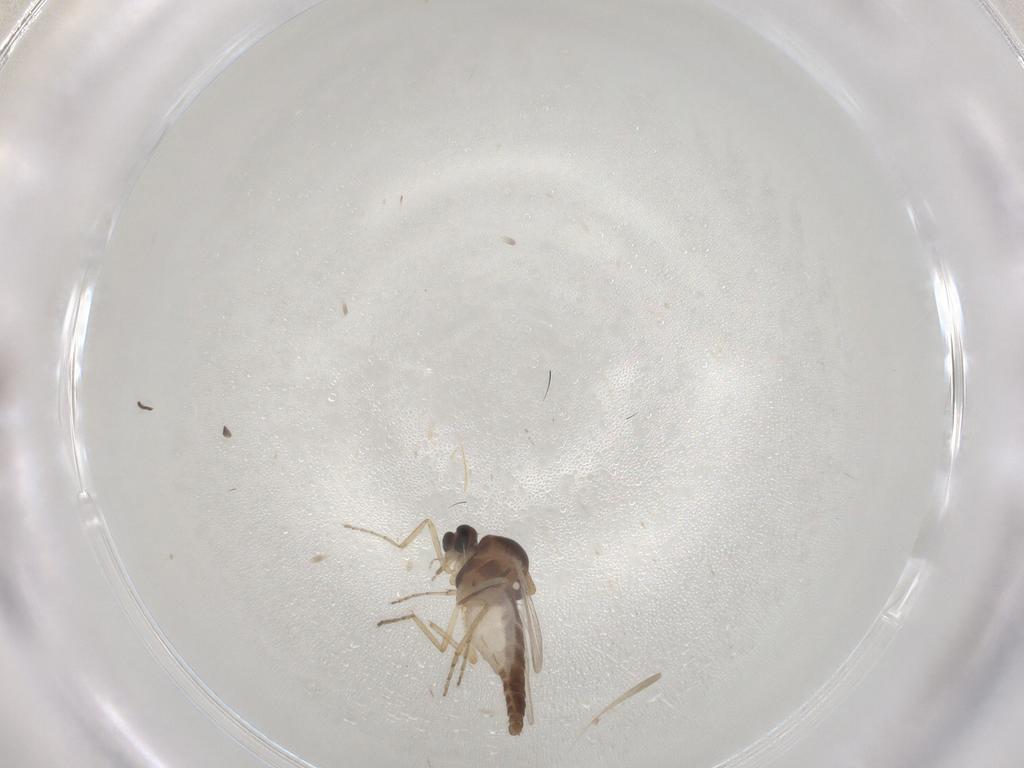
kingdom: Animalia
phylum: Arthropoda
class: Insecta
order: Diptera
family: Ceratopogonidae
